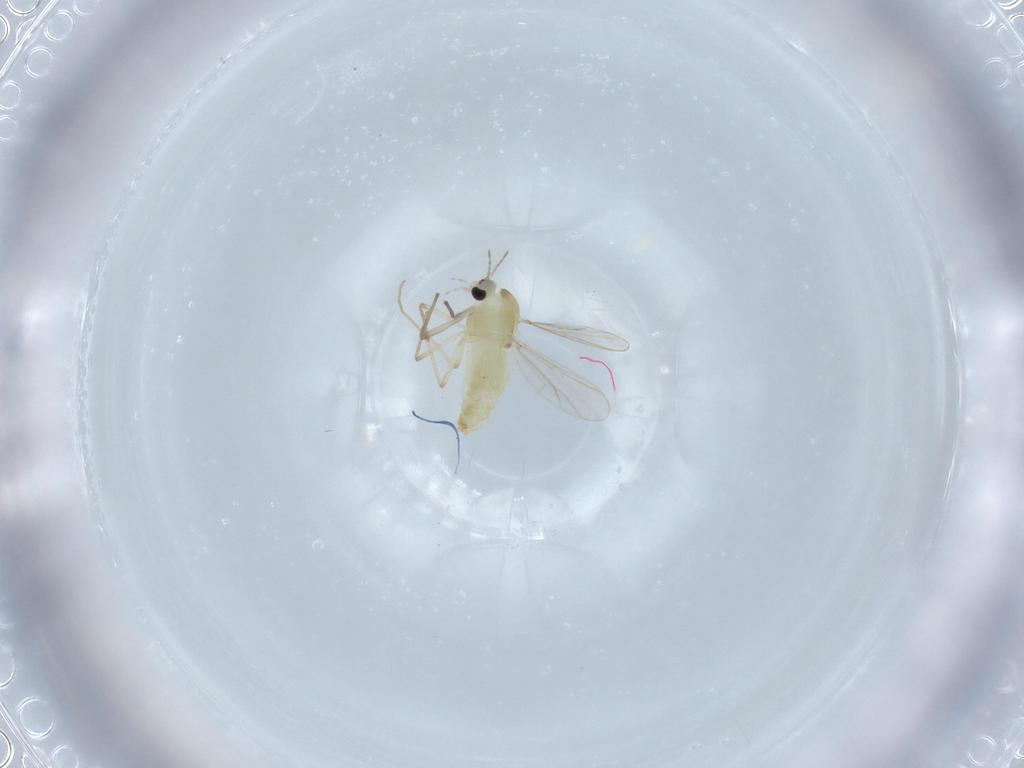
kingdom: Animalia
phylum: Arthropoda
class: Insecta
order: Diptera
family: Chironomidae
